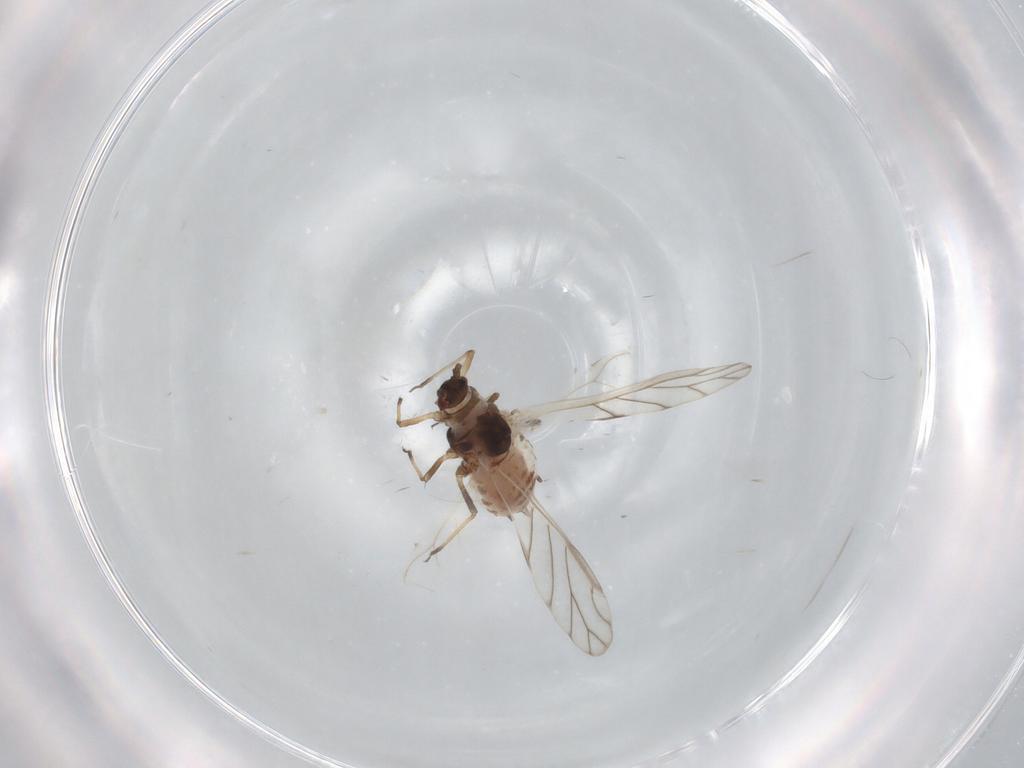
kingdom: Animalia
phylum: Arthropoda
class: Insecta
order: Hemiptera
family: Aphididae
